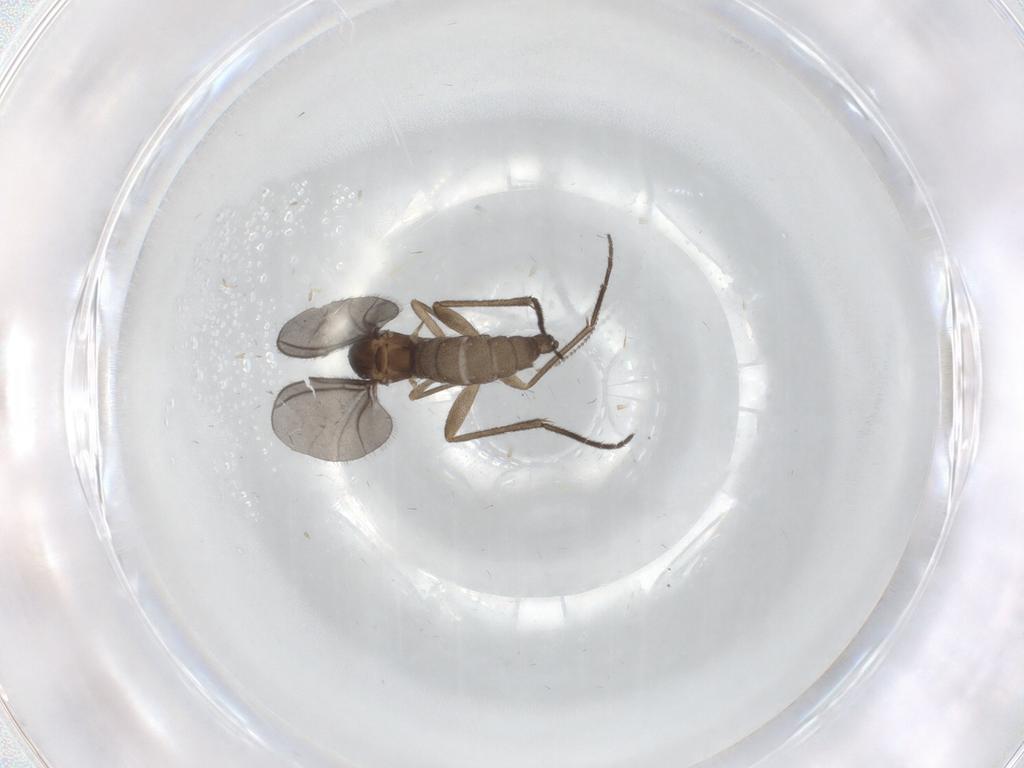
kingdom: Animalia
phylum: Arthropoda
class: Insecta
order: Diptera
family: Sciaridae
